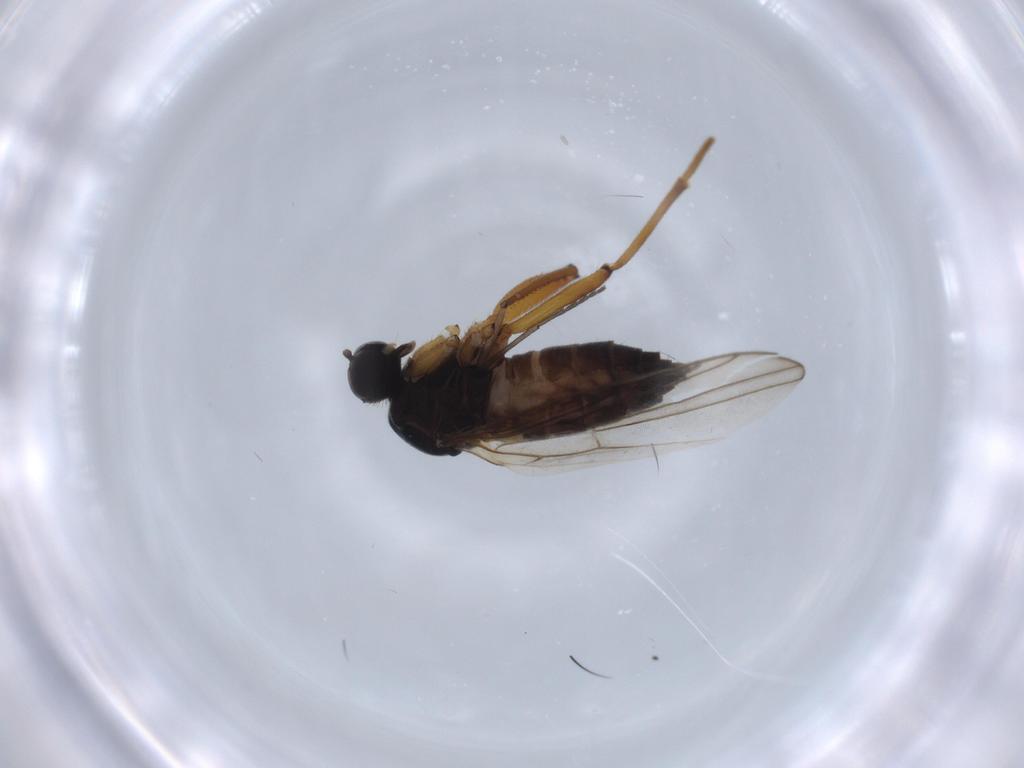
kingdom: Animalia
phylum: Arthropoda
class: Insecta
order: Diptera
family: Hybotidae
